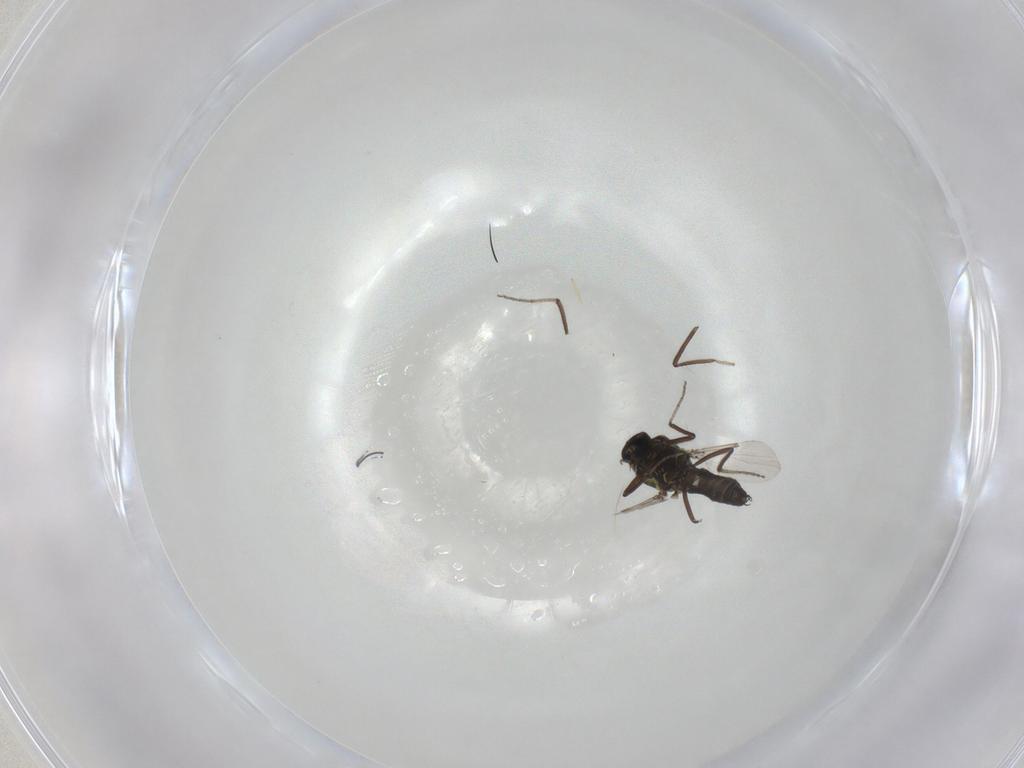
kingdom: Animalia
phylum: Arthropoda
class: Insecta
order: Diptera
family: Ceratopogonidae
